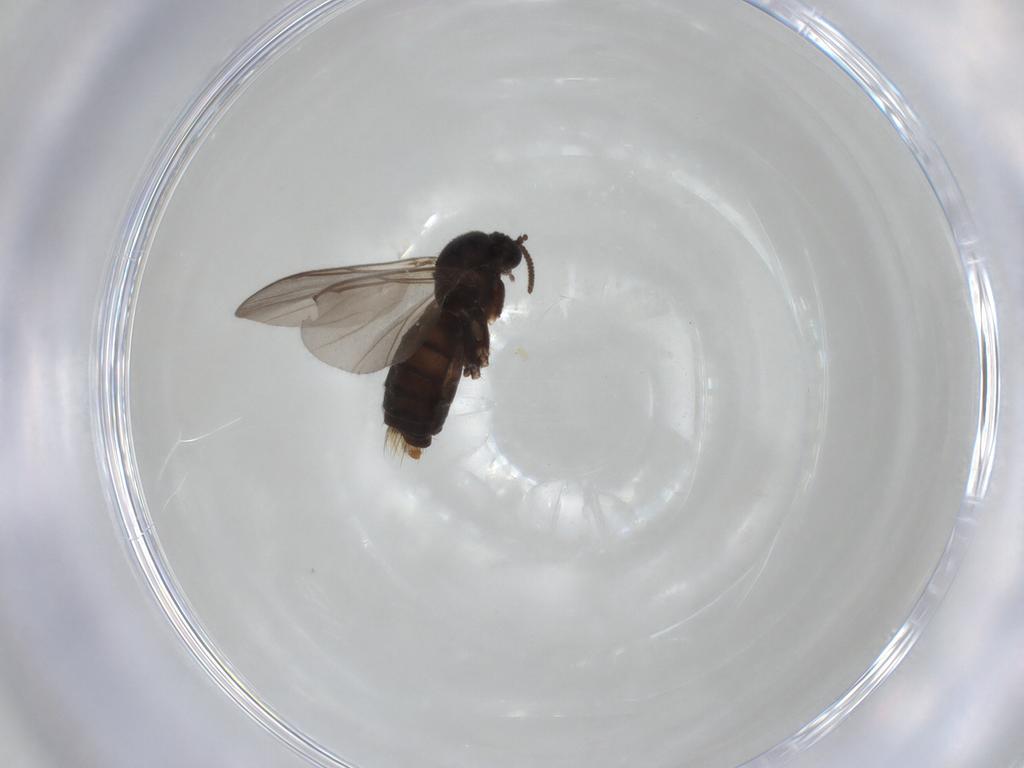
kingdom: Animalia
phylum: Arthropoda
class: Insecta
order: Diptera
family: Mycetophilidae
